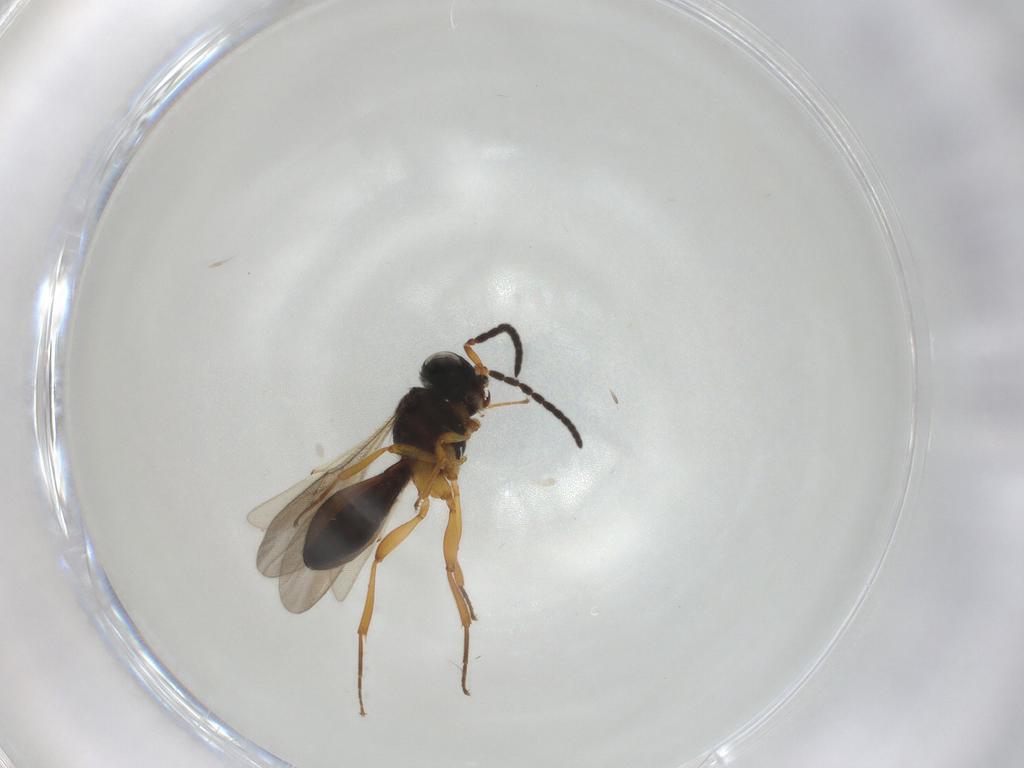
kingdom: Animalia
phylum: Arthropoda
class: Insecta
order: Hymenoptera
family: Scelionidae
